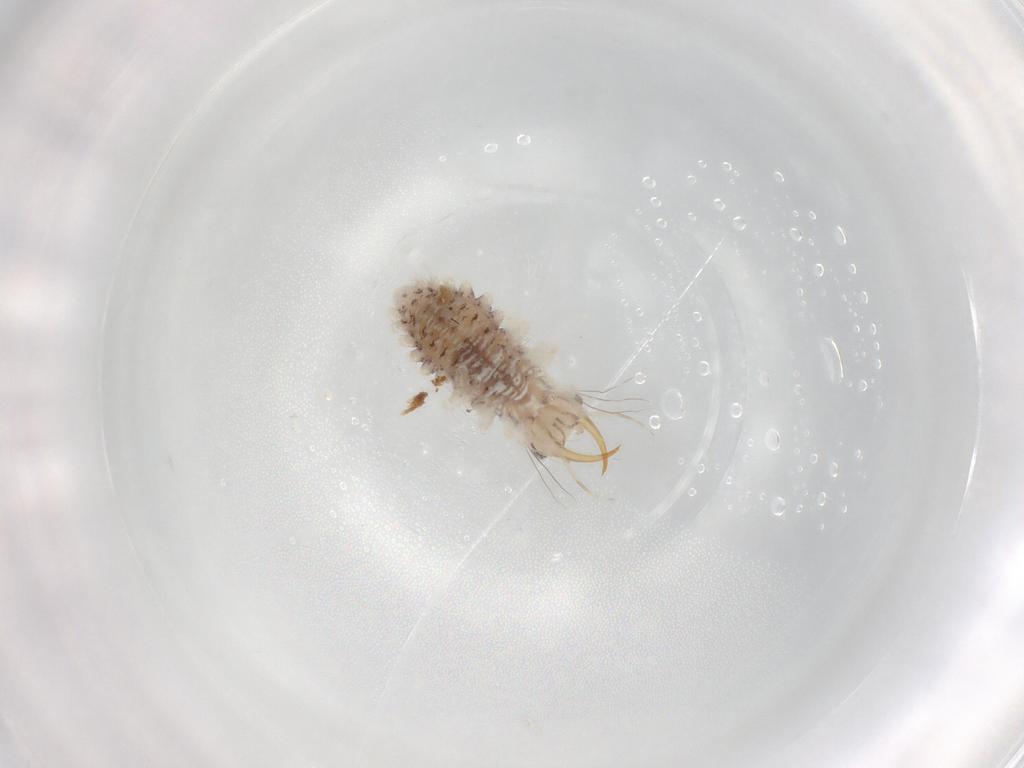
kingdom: Animalia
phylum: Arthropoda
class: Insecta
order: Neuroptera
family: Chrysopidae
